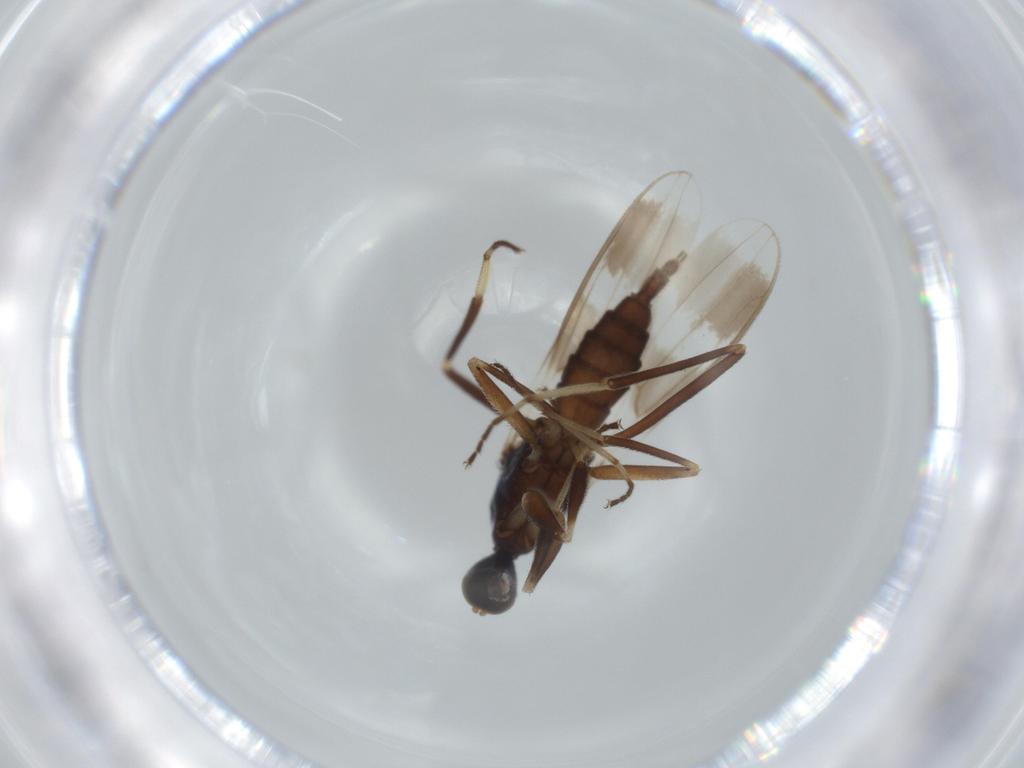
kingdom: Animalia
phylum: Arthropoda
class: Insecta
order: Diptera
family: Hybotidae
